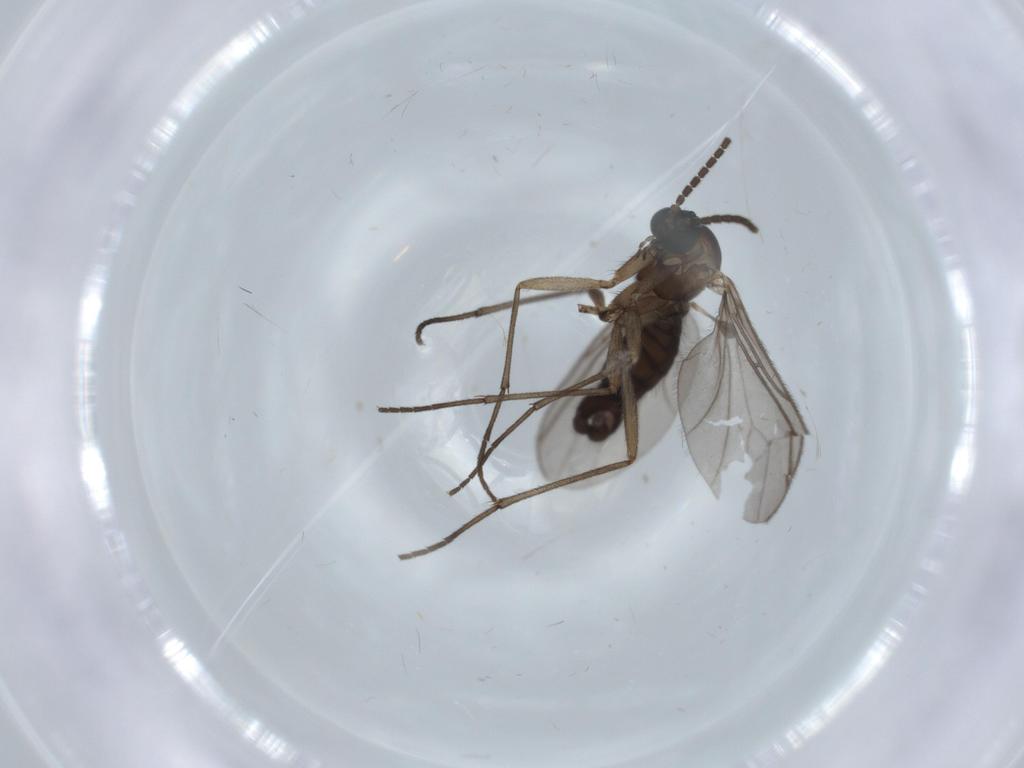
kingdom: Animalia
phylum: Arthropoda
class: Insecta
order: Diptera
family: Sciaridae
